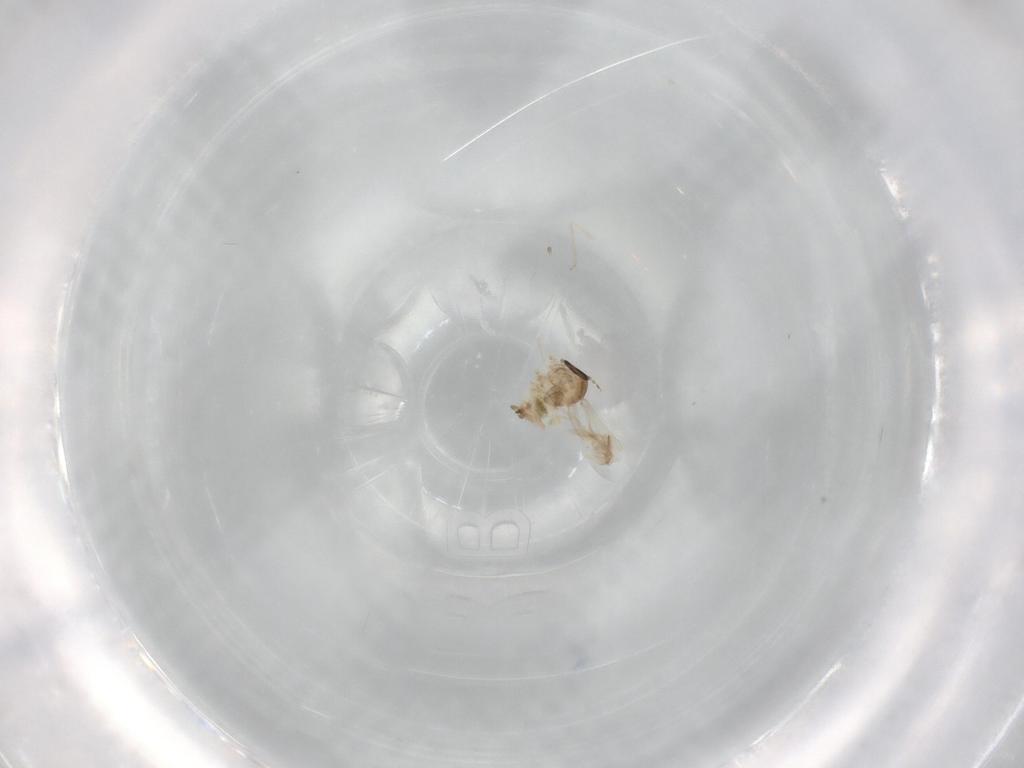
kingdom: Animalia
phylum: Arthropoda
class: Insecta
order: Diptera
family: Cecidomyiidae
